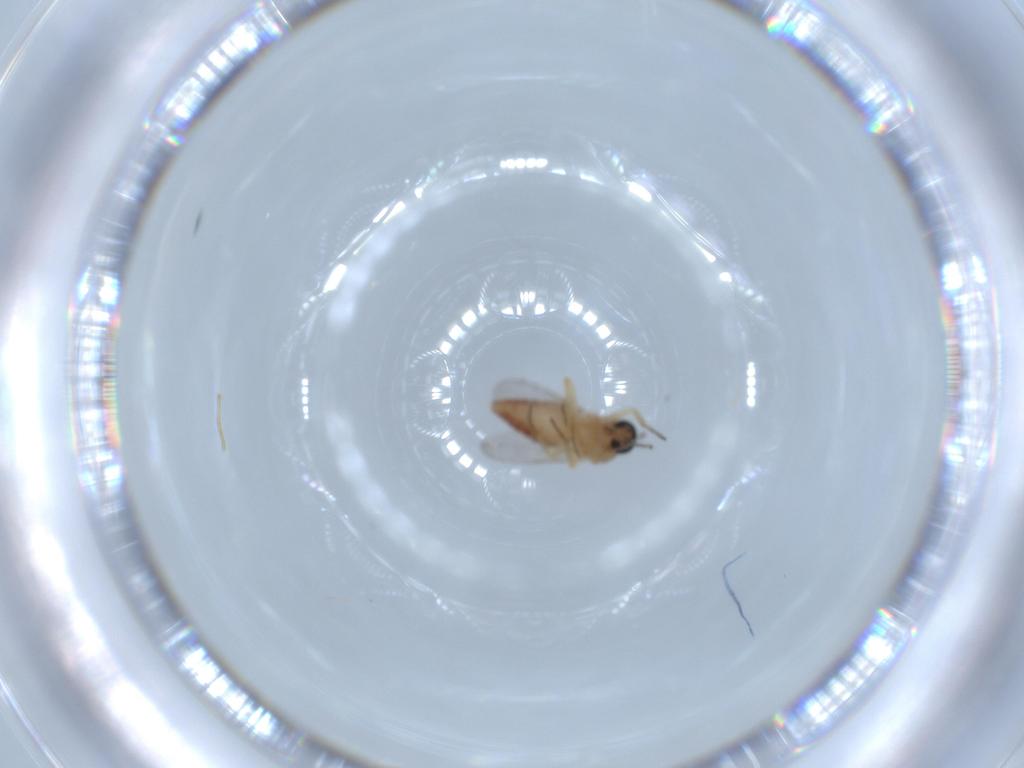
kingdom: Animalia
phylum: Arthropoda
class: Insecta
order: Diptera
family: Ceratopogonidae
